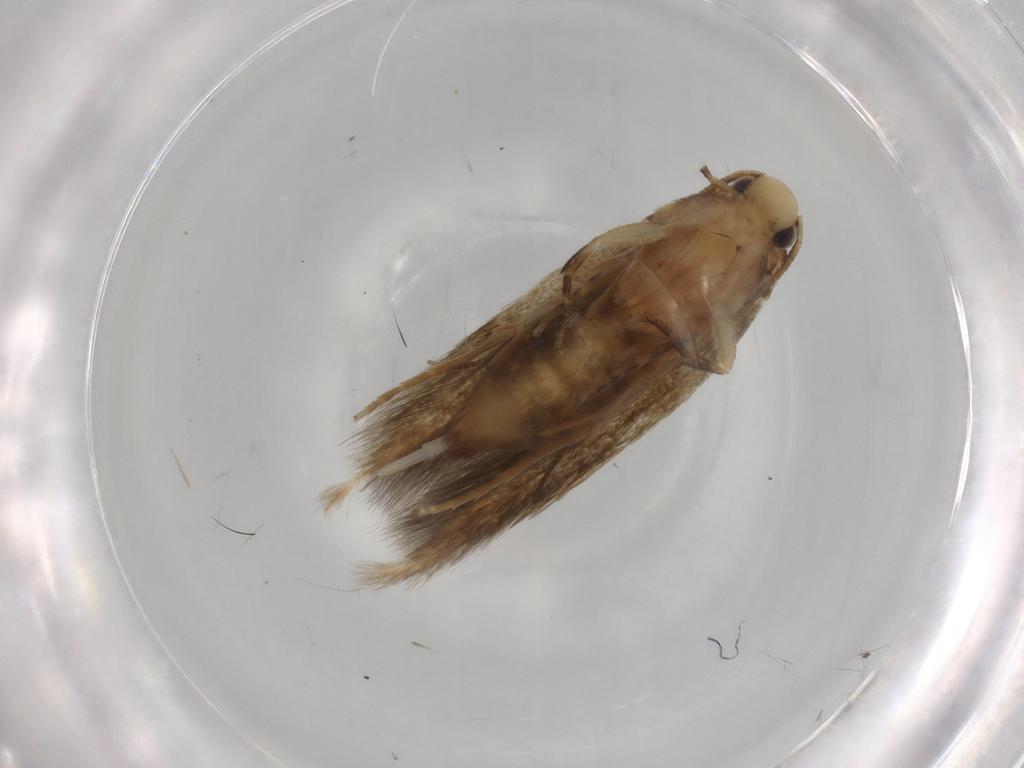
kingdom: Animalia
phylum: Arthropoda
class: Insecta
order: Lepidoptera
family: Tineidae
